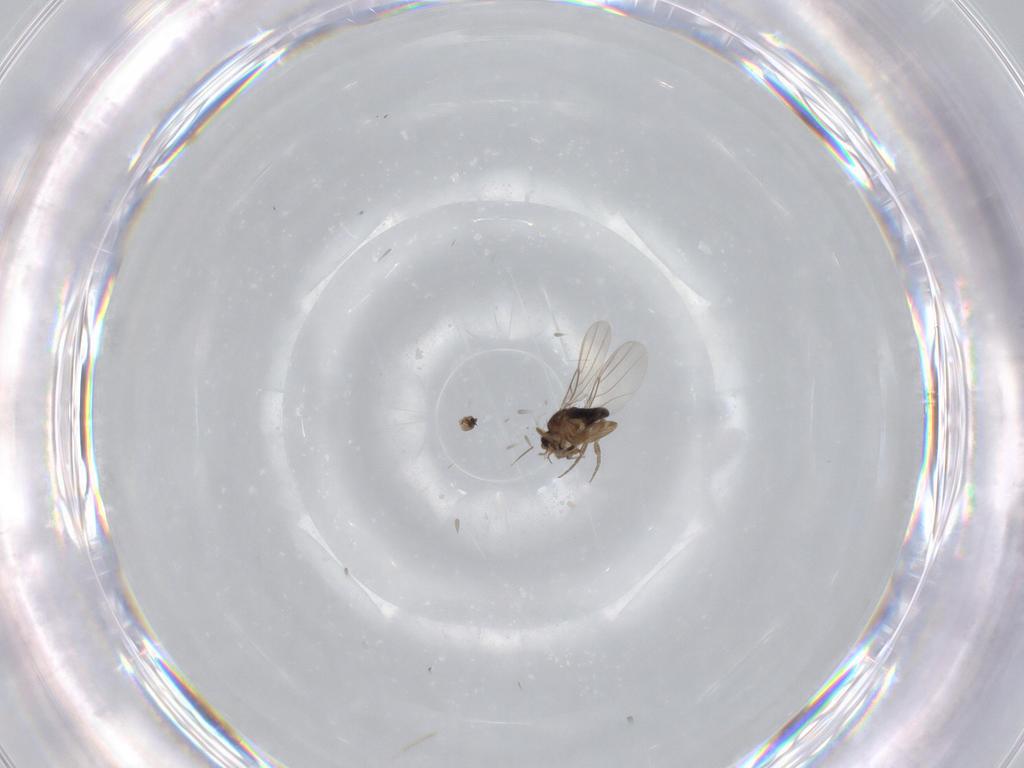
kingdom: Animalia
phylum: Arthropoda
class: Insecta
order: Diptera
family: Phoridae
